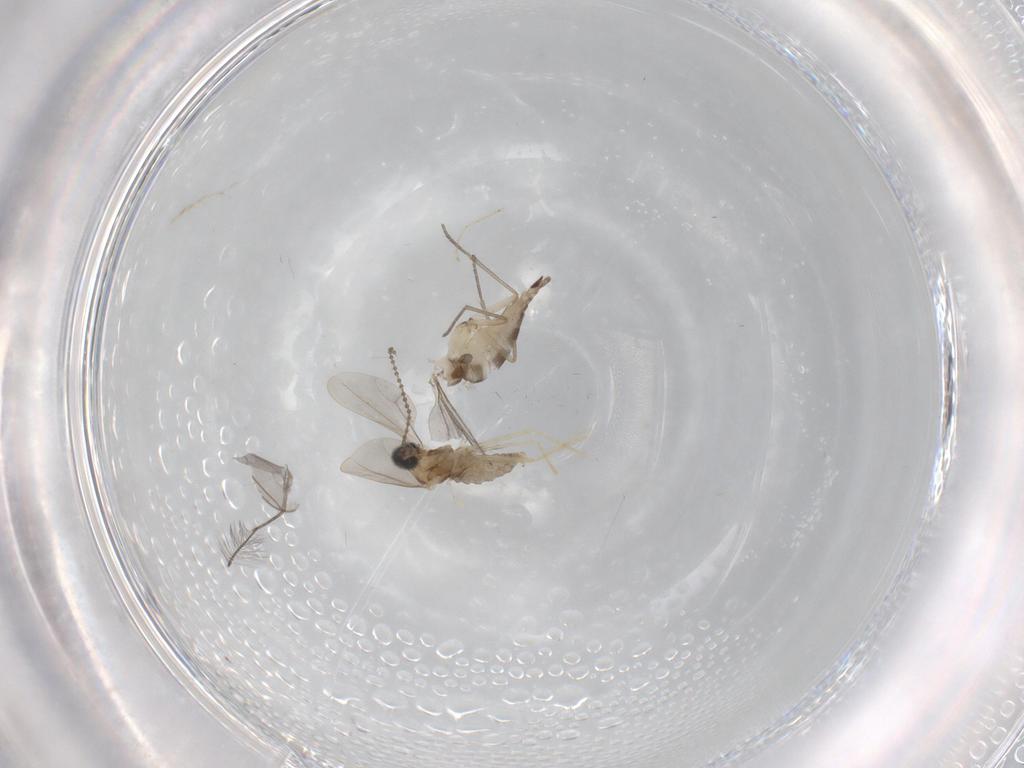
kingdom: Animalia
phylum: Arthropoda
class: Insecta
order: Diptera
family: Cecidomyiidae
